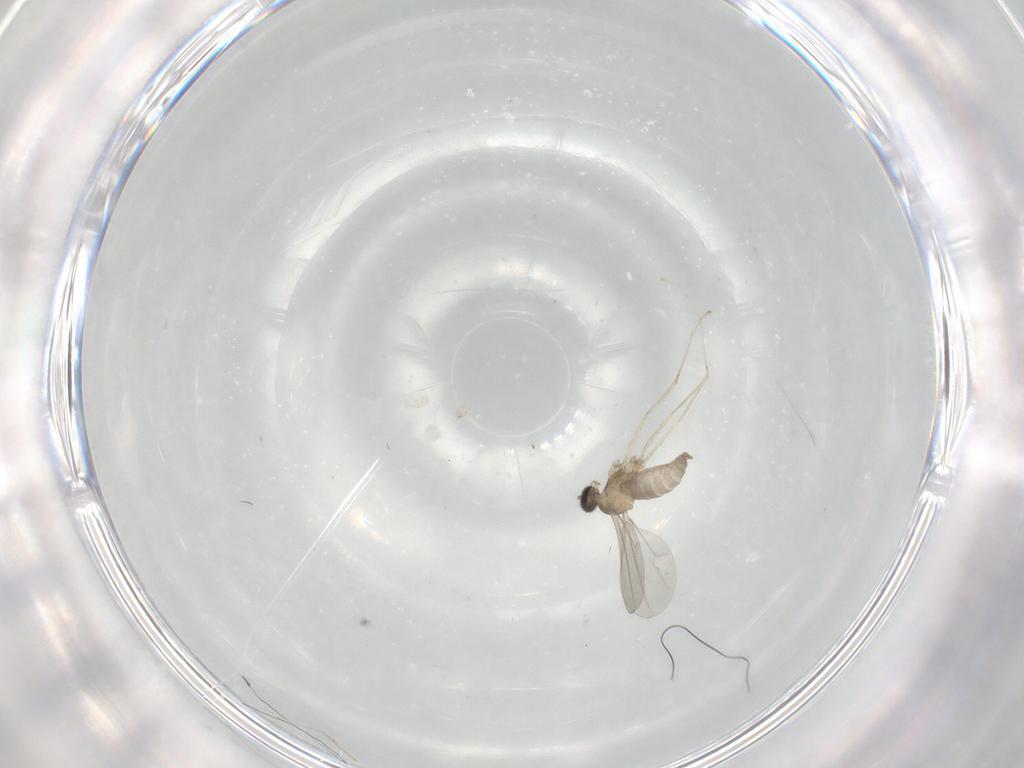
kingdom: Animalia
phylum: Arthropoda
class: Insecta
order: Diptera
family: Cecidomyiidae
